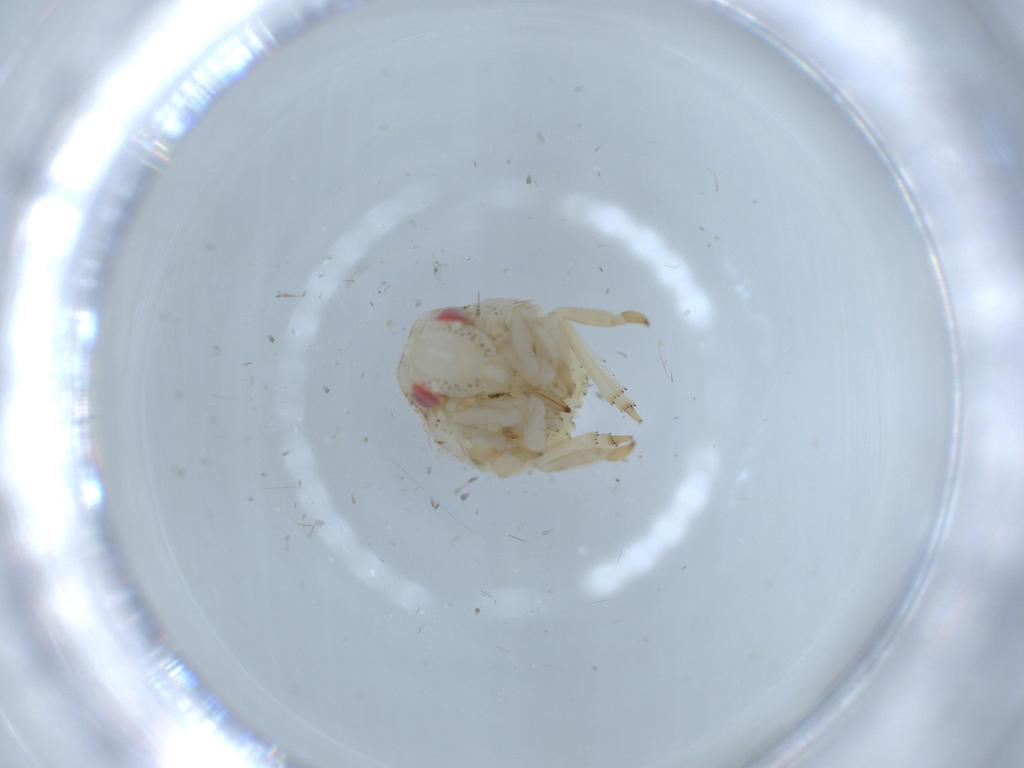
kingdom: Animalia
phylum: Arthropoda
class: Insecta
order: Hemiptera
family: Acanaloniidae
